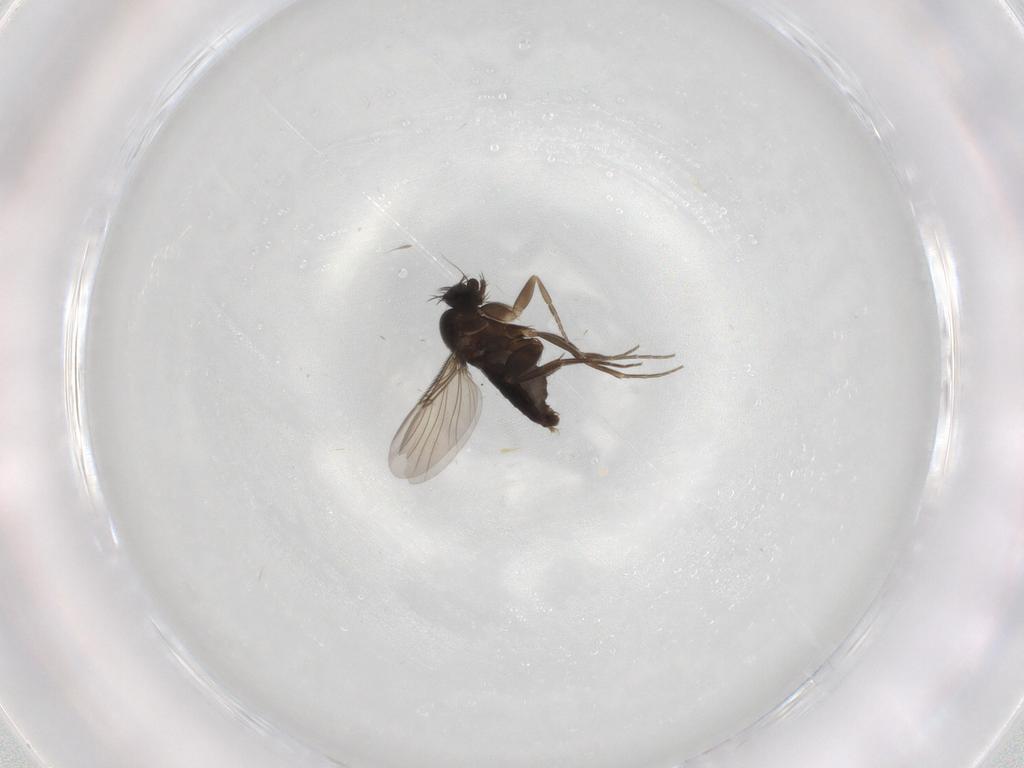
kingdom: Animalia
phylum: Arthropoda
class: Insecta
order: Diptera
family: Phoridae
